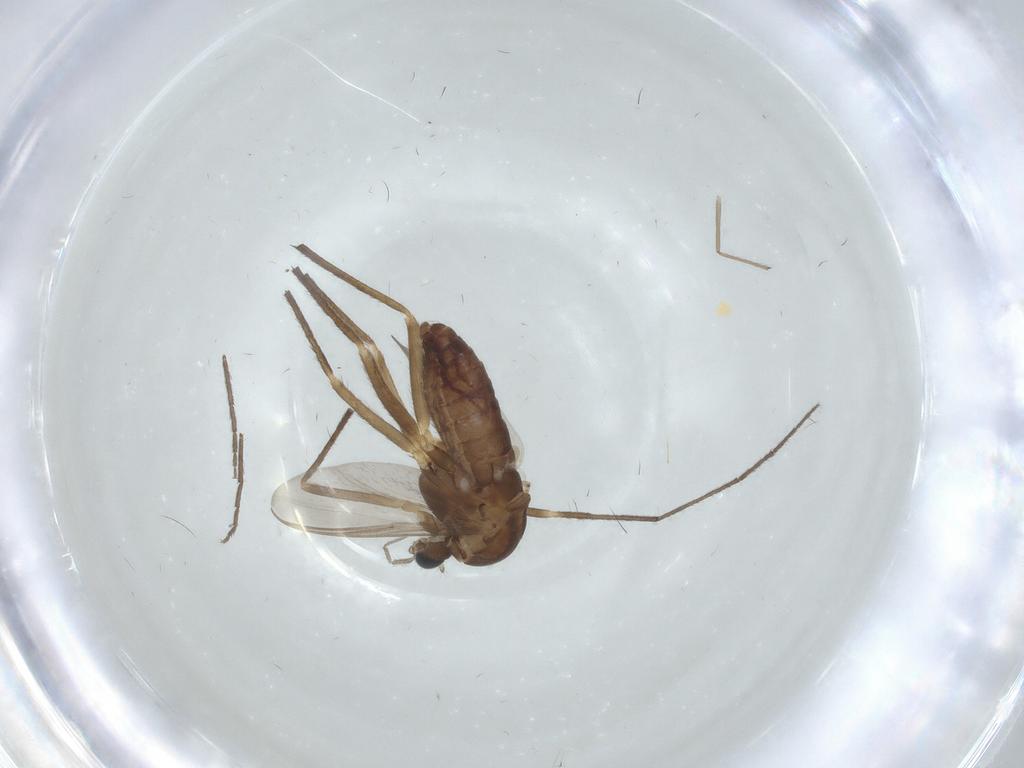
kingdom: Animalia
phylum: Arthropoda
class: Insecta
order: Diptera
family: Chironomidae
